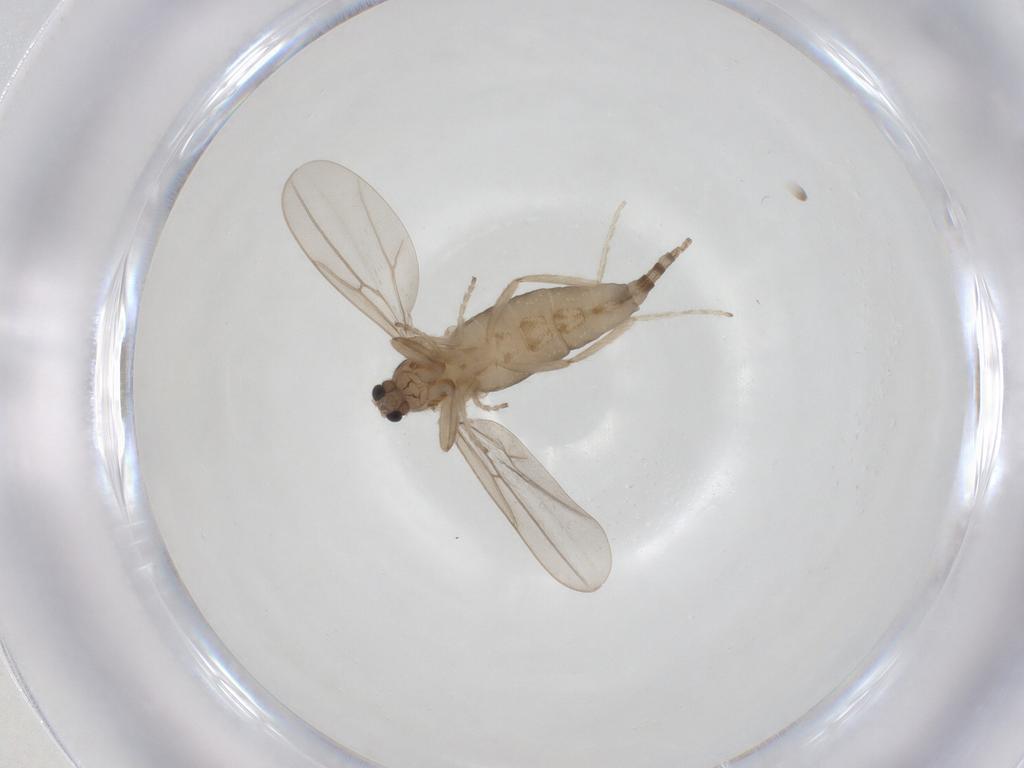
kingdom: Animalia
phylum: Arthropoda
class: Insecta
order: Diptera
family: Cecidomyiidae
